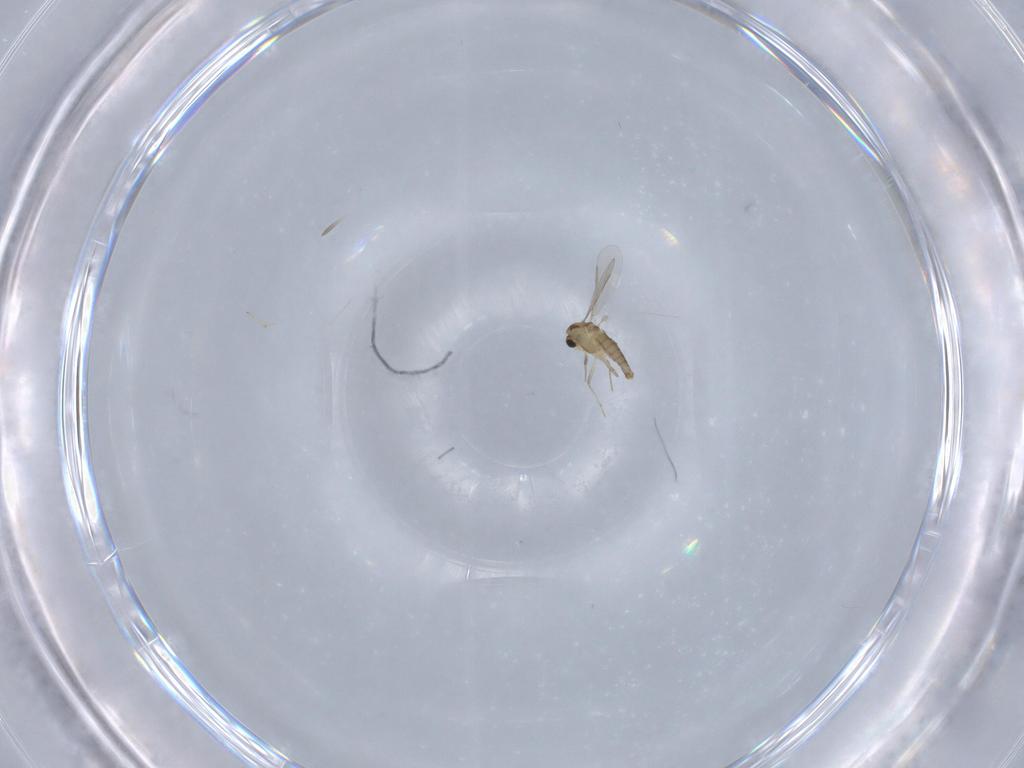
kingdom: Animalia
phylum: Arthropoda
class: Insecta
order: Diptera
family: Chironomidae
